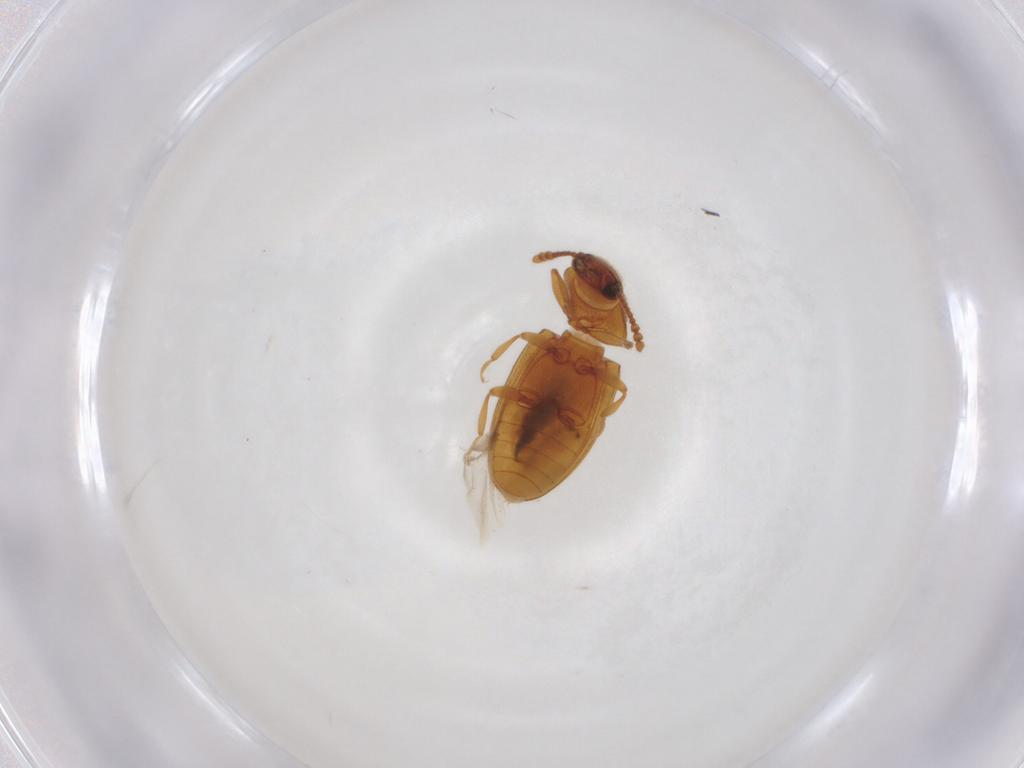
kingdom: Animalia
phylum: Arthropoda
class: Insecta
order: Coleoptera
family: Erotylidae
